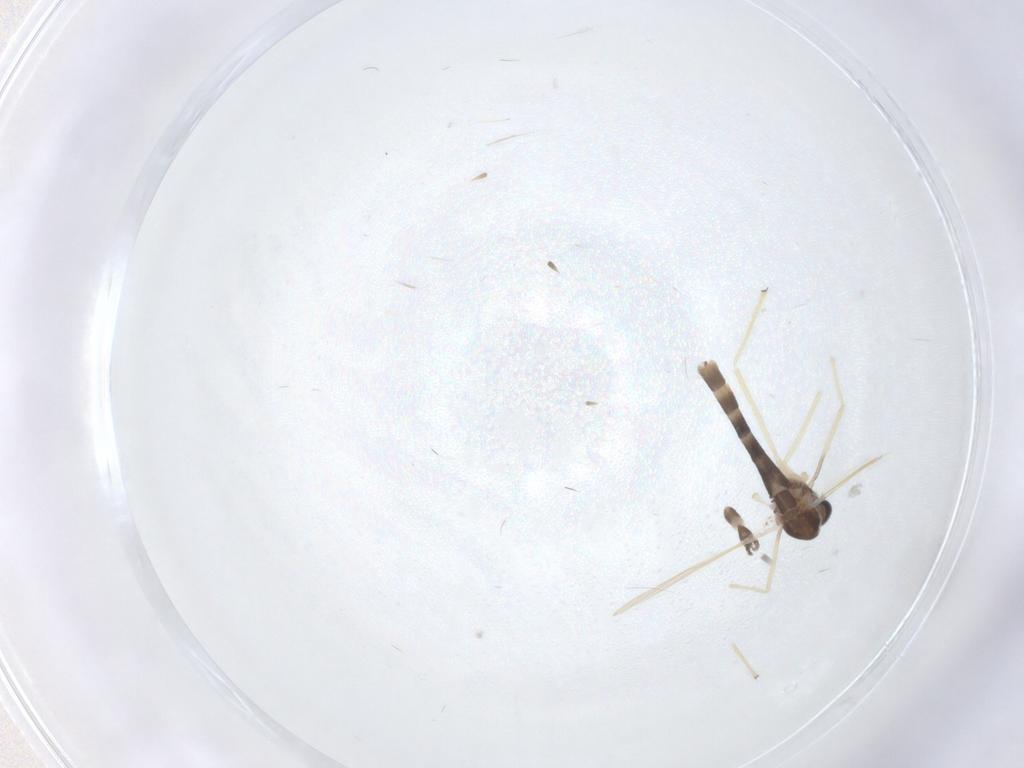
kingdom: Animalia
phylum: Arthropoda
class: Insecta
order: Diptera
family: Chironomidae
